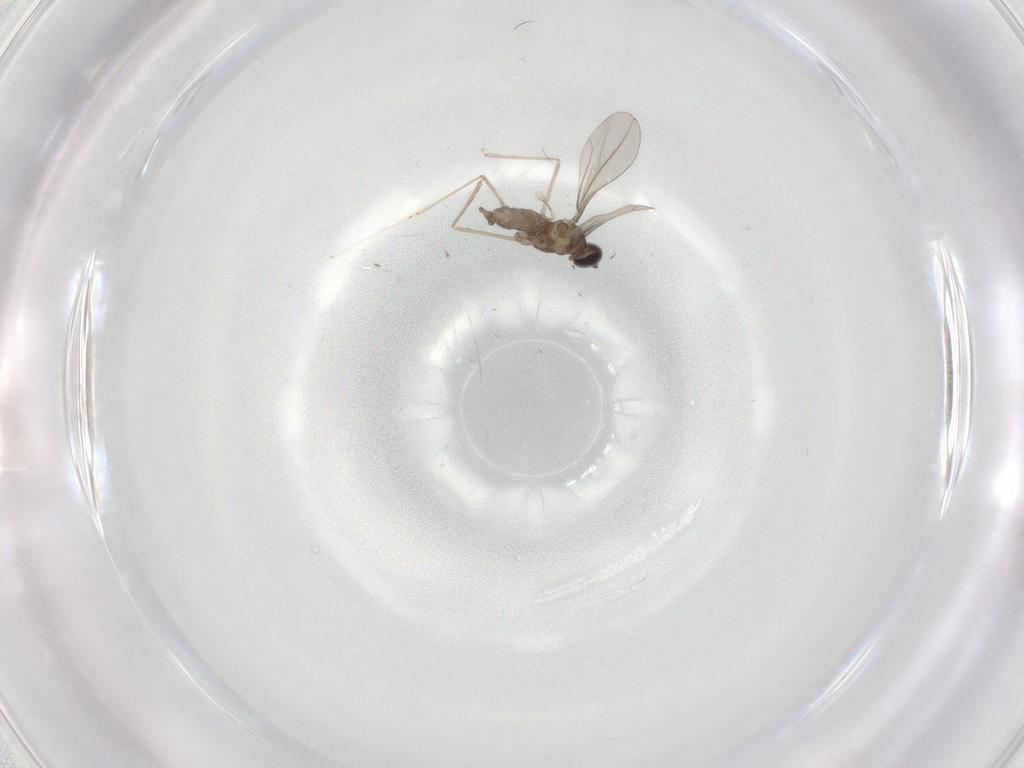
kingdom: Animalia
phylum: Arthropoda
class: Insecta
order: Diptera
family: Cecidomyiidae
